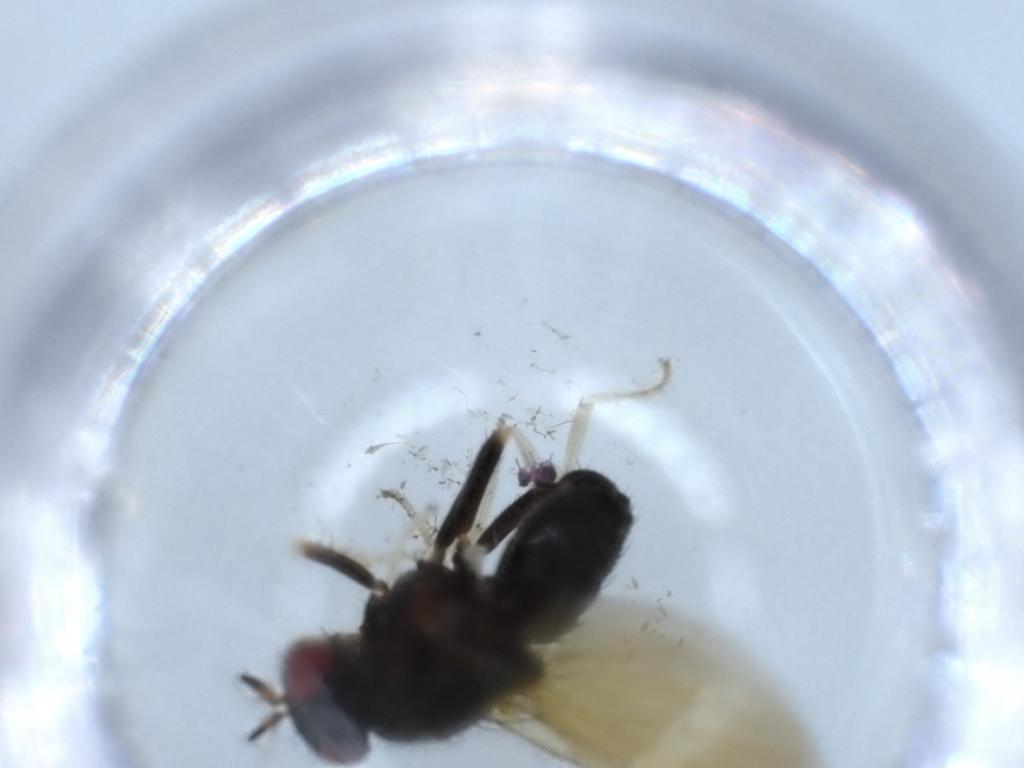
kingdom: Animalia
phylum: Arthropoda
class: Insecta
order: Diptera
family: Lauxaniidae
